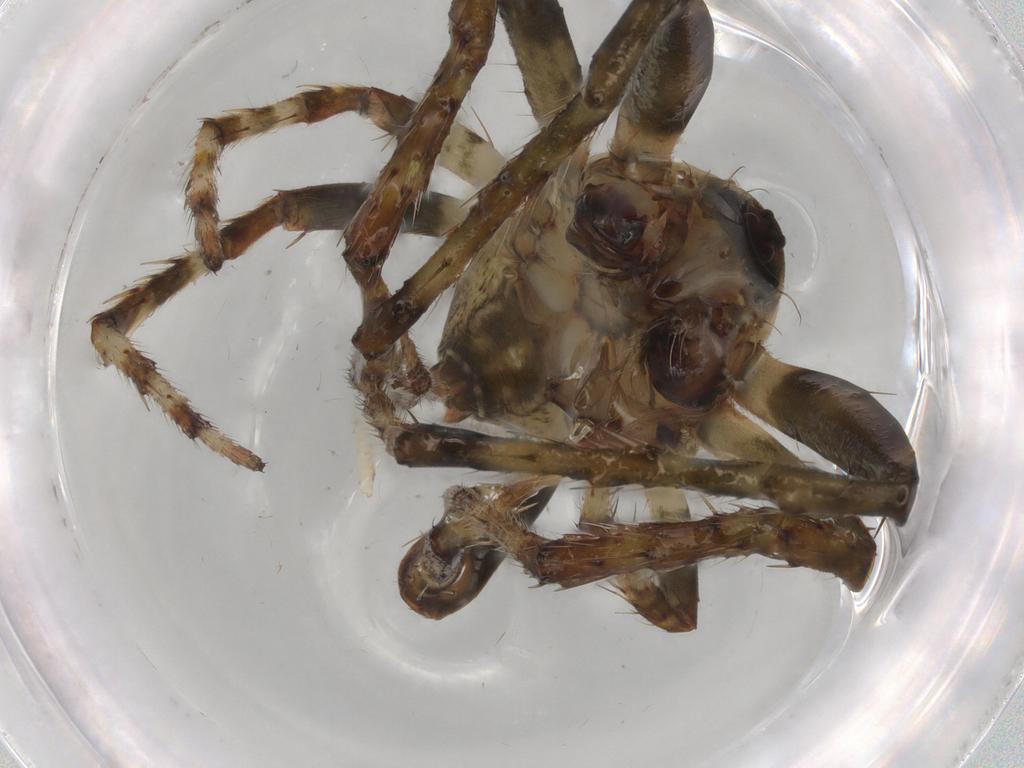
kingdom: Animalia
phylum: Arthropoda
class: Arachnida
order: Araneae
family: Araneidae
